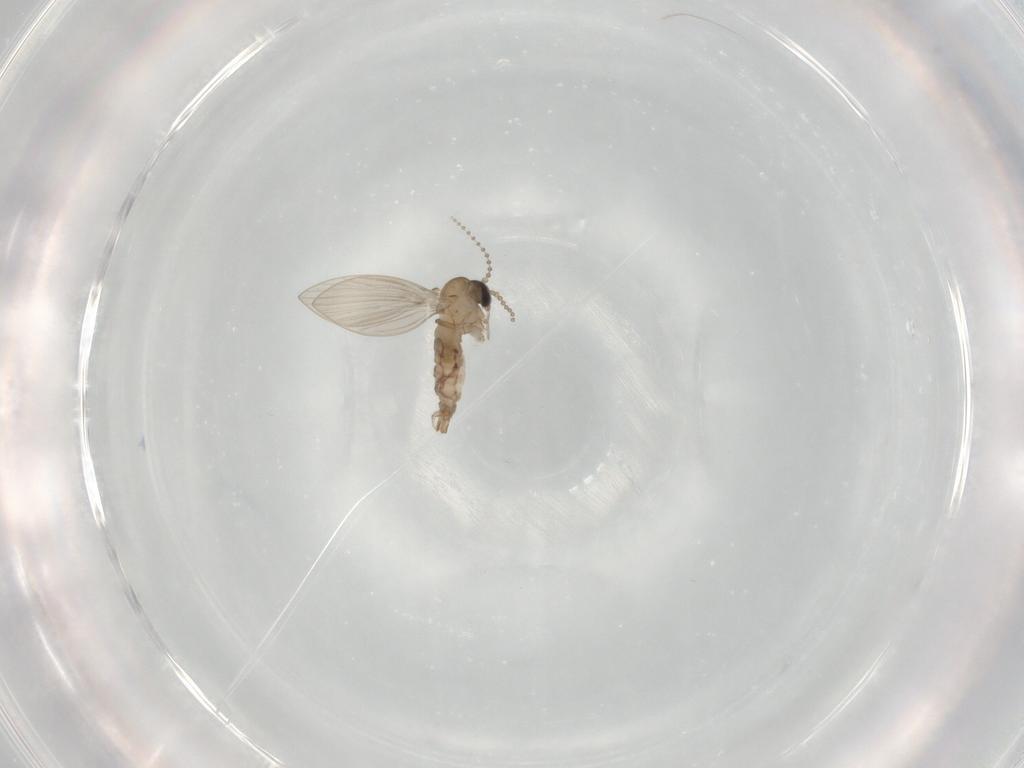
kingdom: Animalia
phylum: Arthropoda
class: Insecta
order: Diptera
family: Psychodidae
